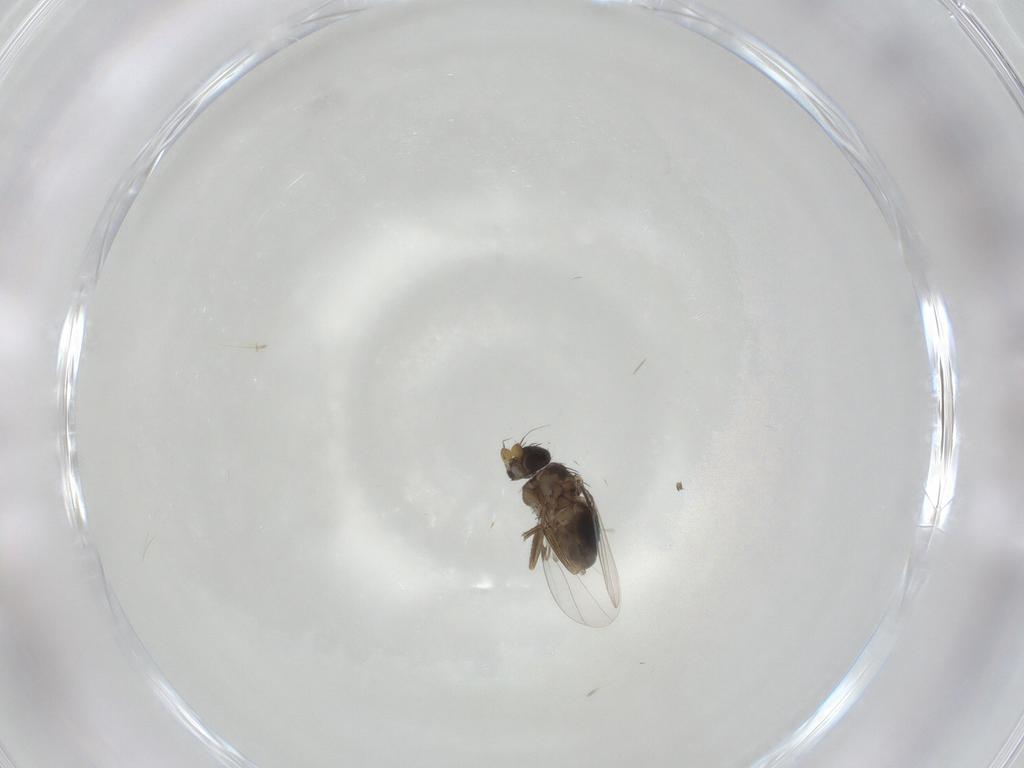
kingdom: Animalia
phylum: Arthropoda
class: Insecta
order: Diptera
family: Phoridae
